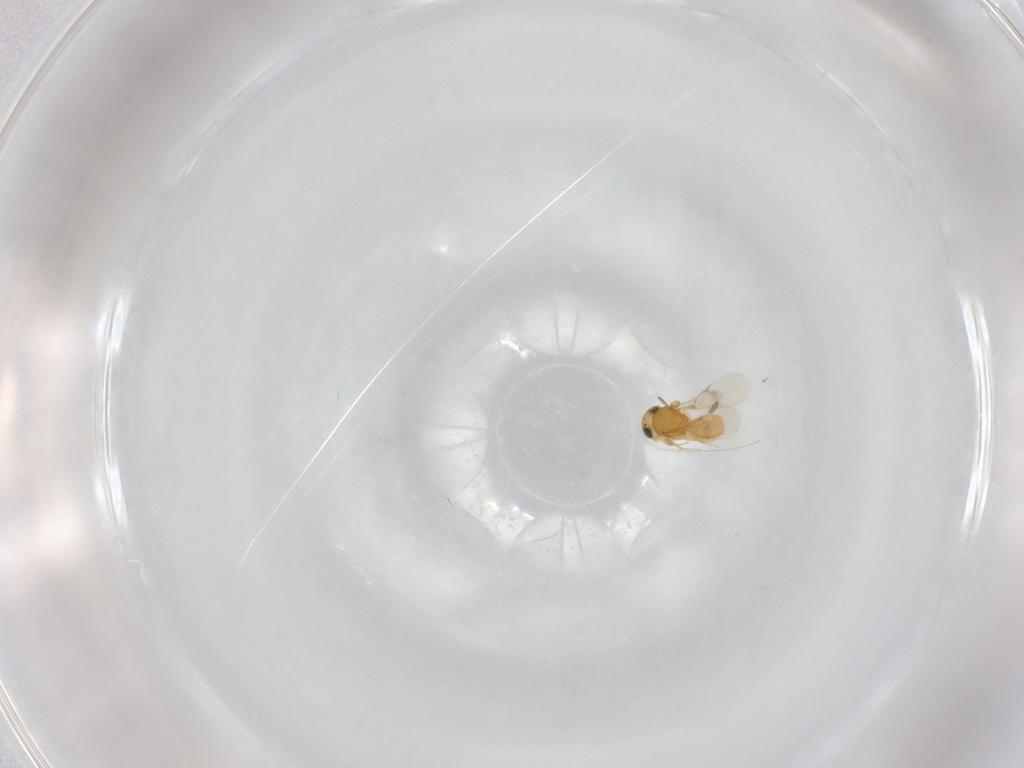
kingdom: Animalia
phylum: Arthropoda
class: Insecta
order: Hymenoptera
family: Scelionidae
